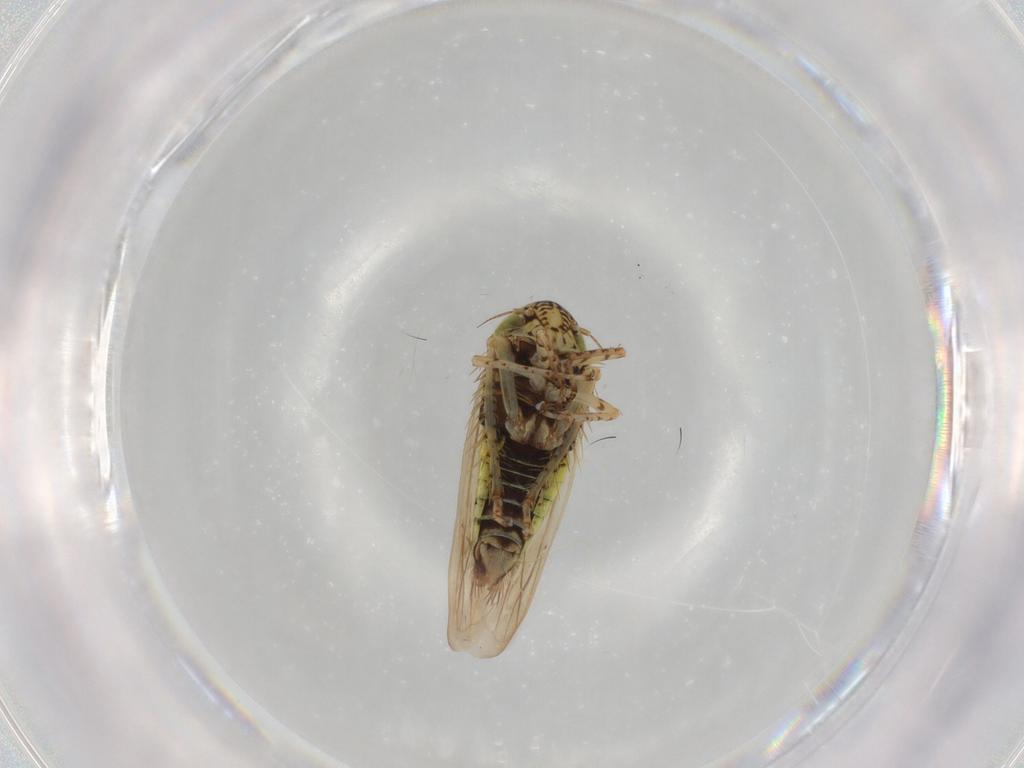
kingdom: Animalia
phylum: Arthropoda
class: Insecta
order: Hemiptera
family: Cicadellidae
